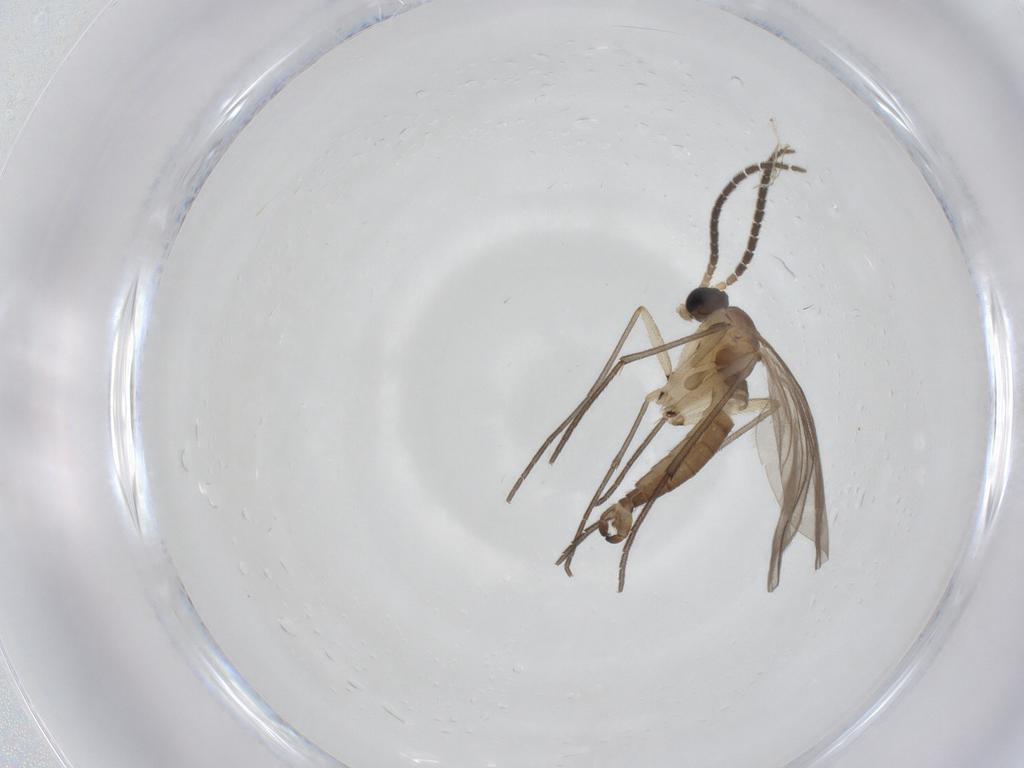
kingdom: Animalia
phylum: Arthropoda
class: Insecta
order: Diptera
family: Sciaridae
